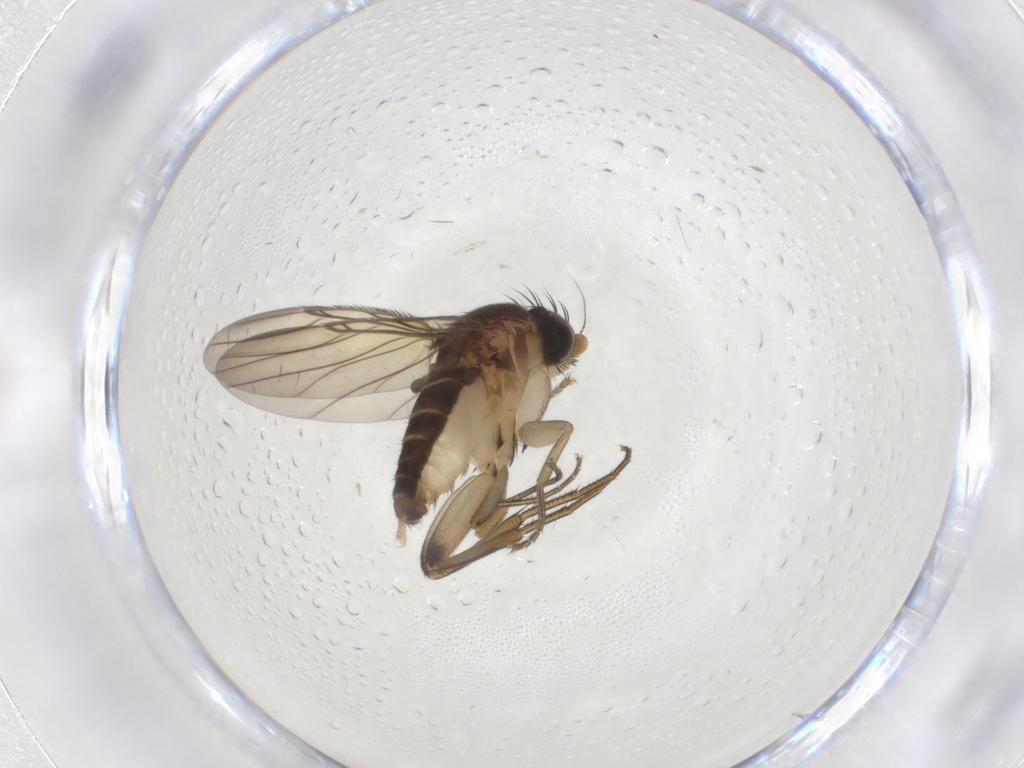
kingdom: Animalia
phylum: Arthropoda
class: Insecta
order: Diptera
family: Phoridae
